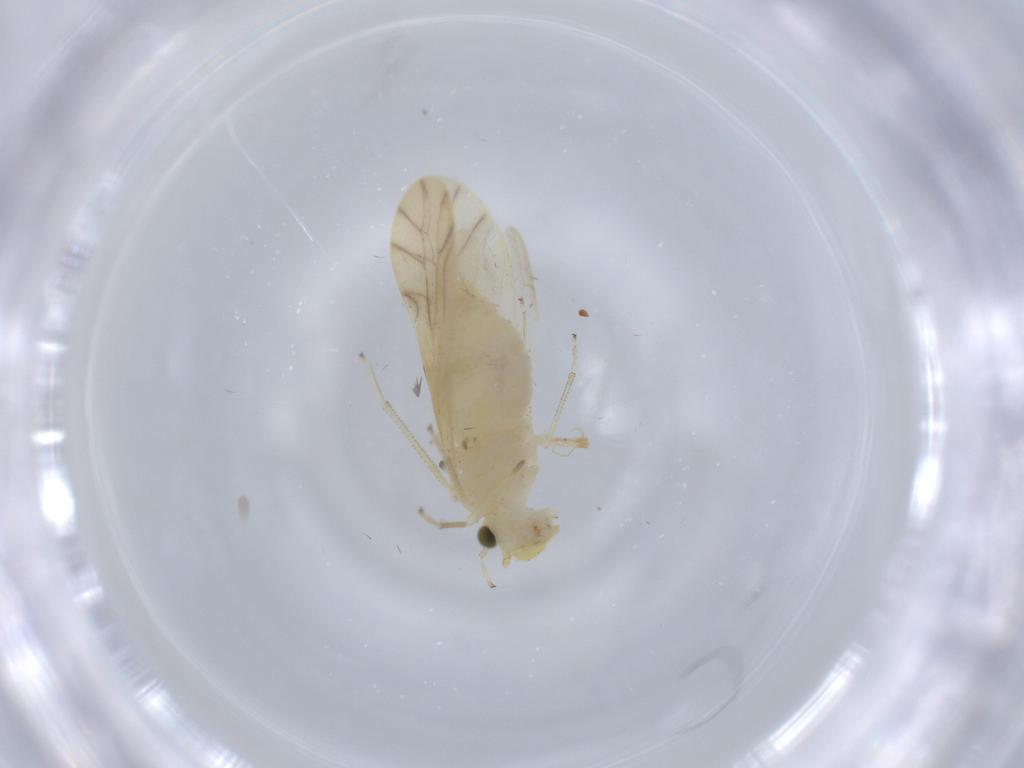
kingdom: Animalia
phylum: Arthropoda
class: Insecta
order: Psocodea
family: Caeciliusidae
